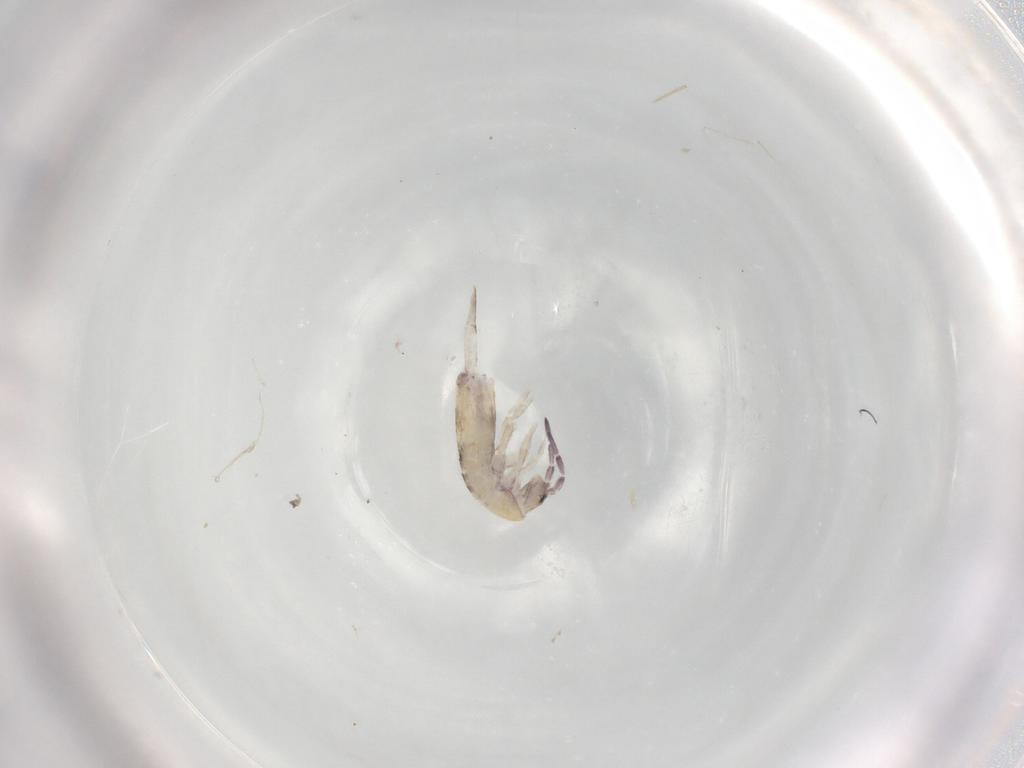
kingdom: Animalia
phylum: Arthropoda
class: Collembola
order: Entomobryomorpha
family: Entomobryidae
